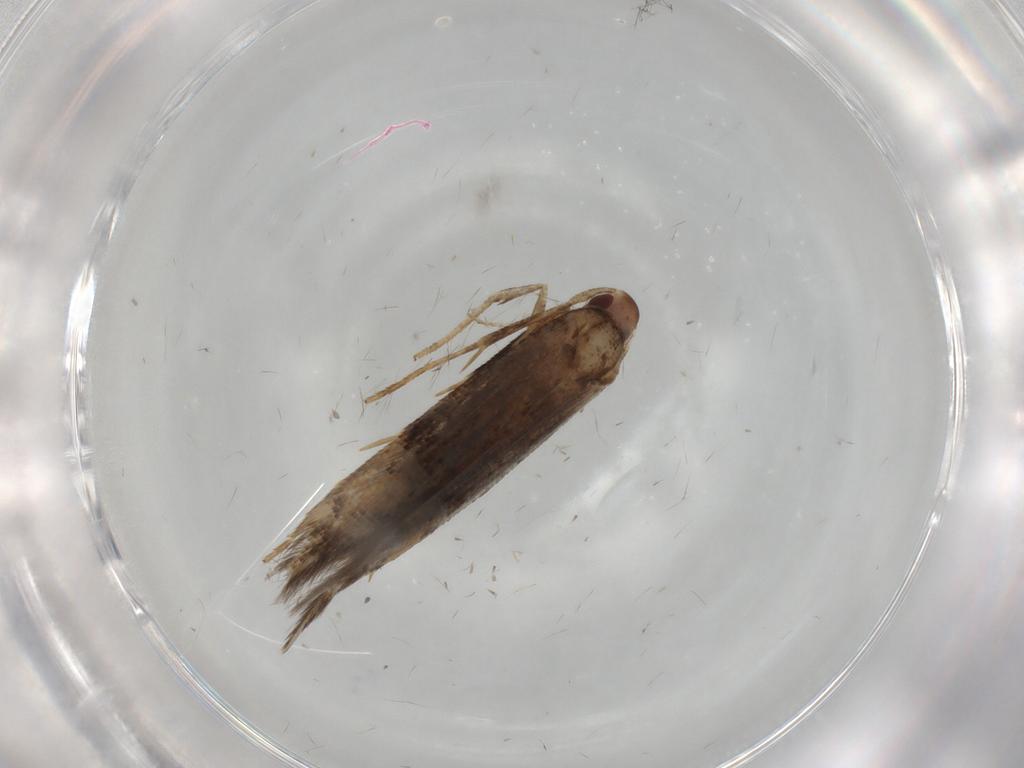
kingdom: Animalia
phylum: Arthropoda
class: Insecta
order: Lepidoptera
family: Cosmopterigidae
